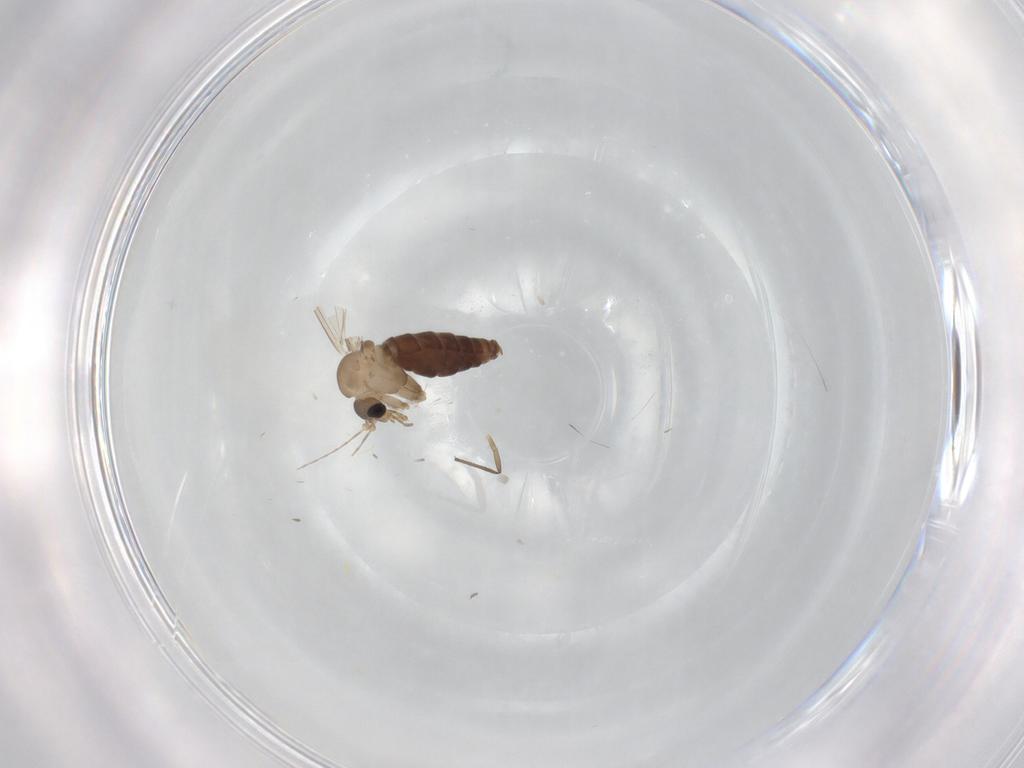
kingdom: Animalia
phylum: Arthropoda
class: Insecta
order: Diptera
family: Psychodidae
